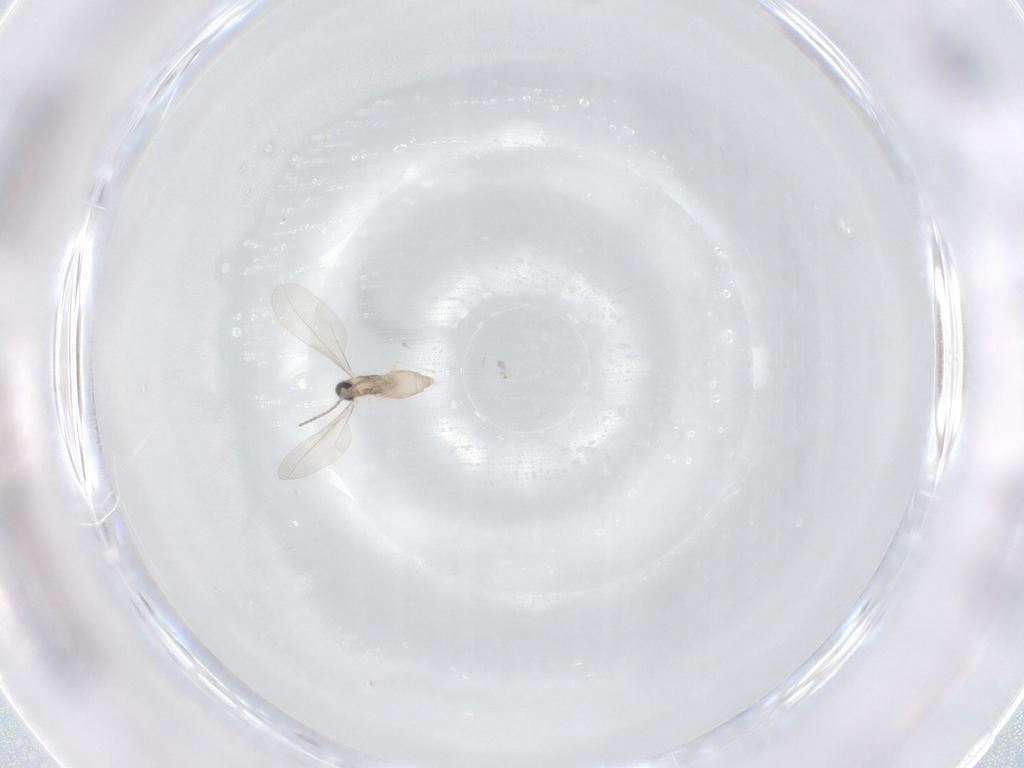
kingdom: Animalia
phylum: Arthropoda
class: Insecta
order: Diptera
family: Cecidomyiidae
